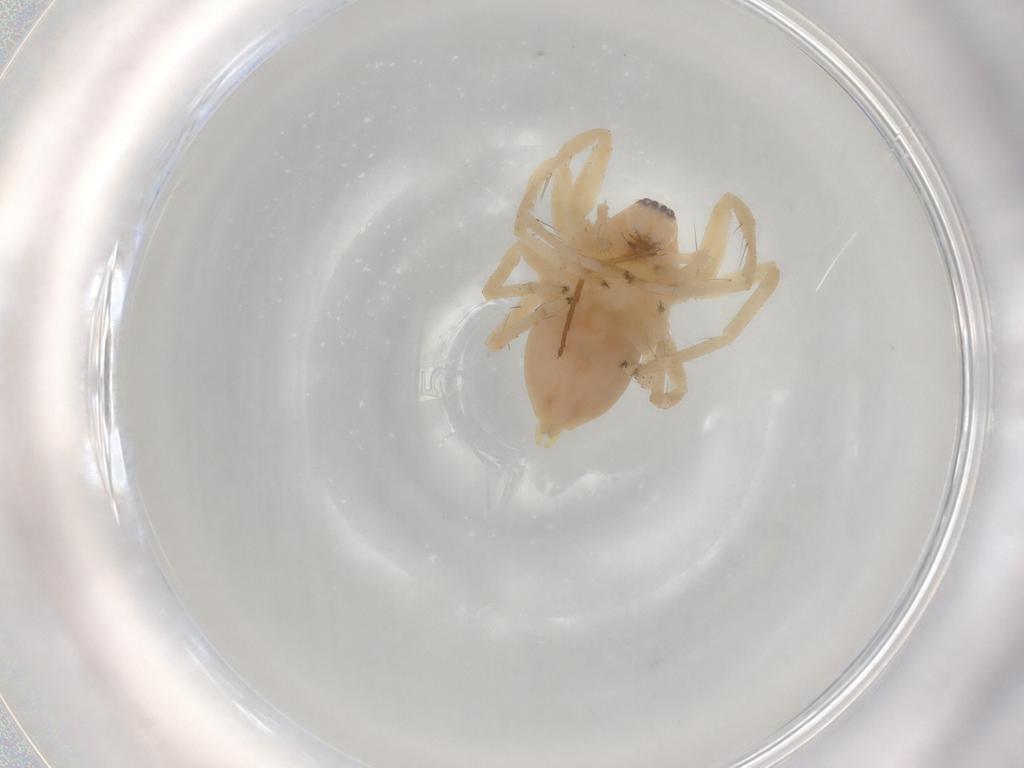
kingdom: Animalia
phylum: Arthropoda
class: Arachnida
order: Araneae
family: Anyphaenidae
